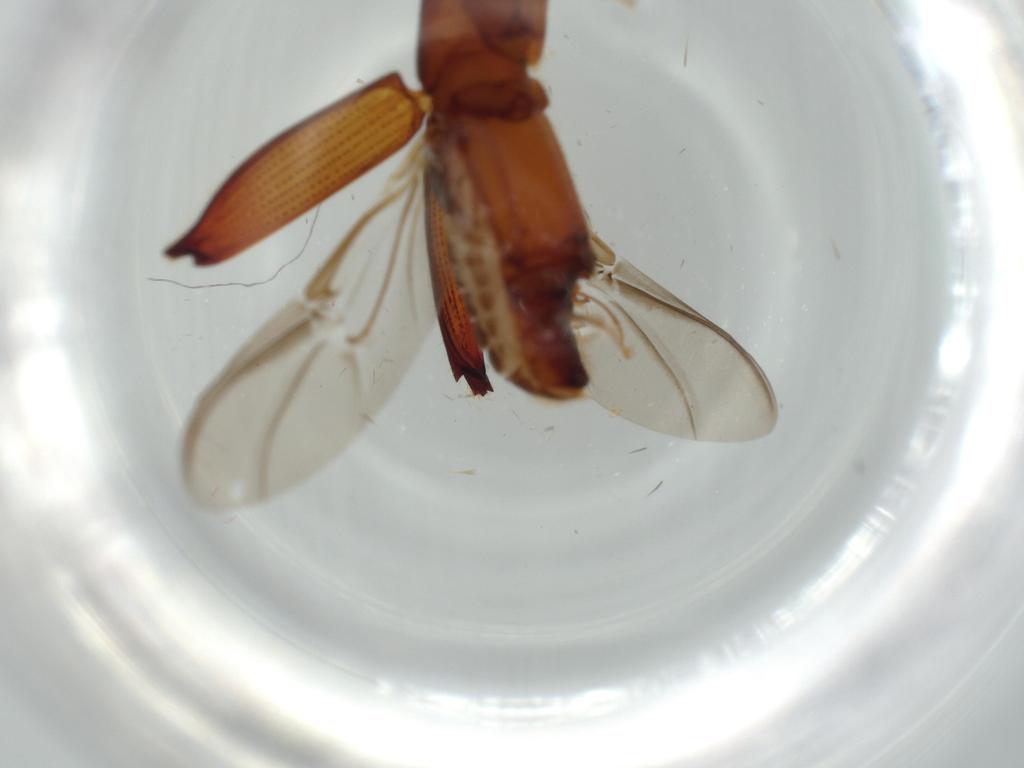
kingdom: Animalia
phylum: Arthropoda
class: Insecta
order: Coleoptera
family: Curculionidae
